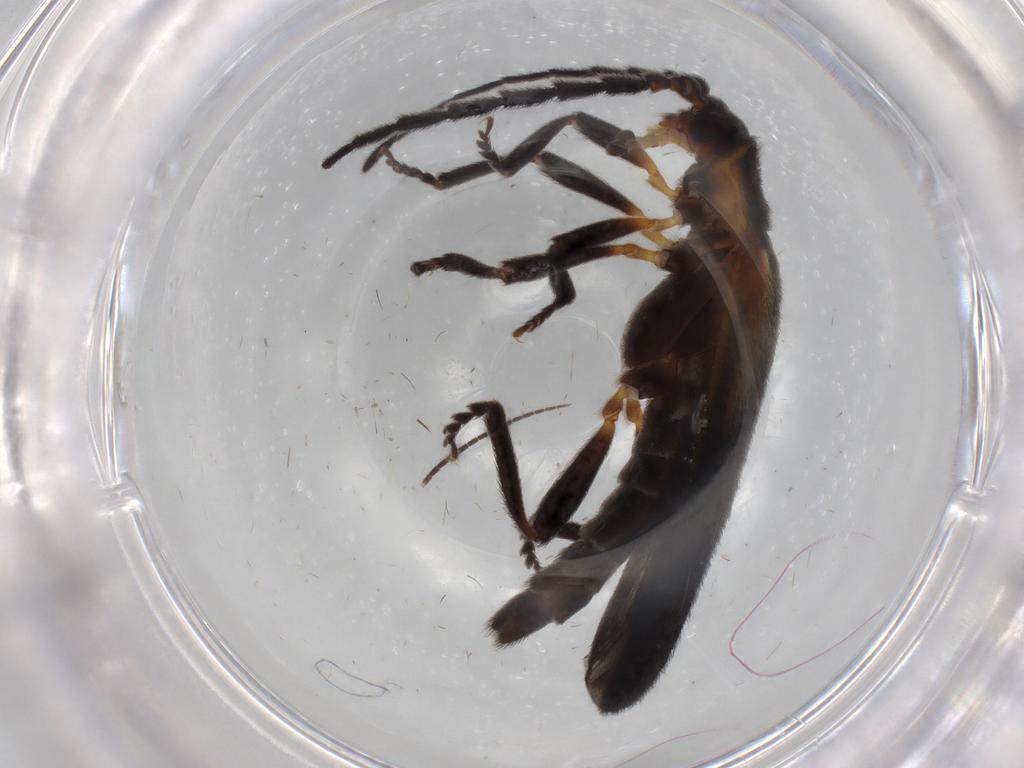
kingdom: Animalia
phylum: Arthropoda
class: Insecta
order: Coleoptera
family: Lycidae
